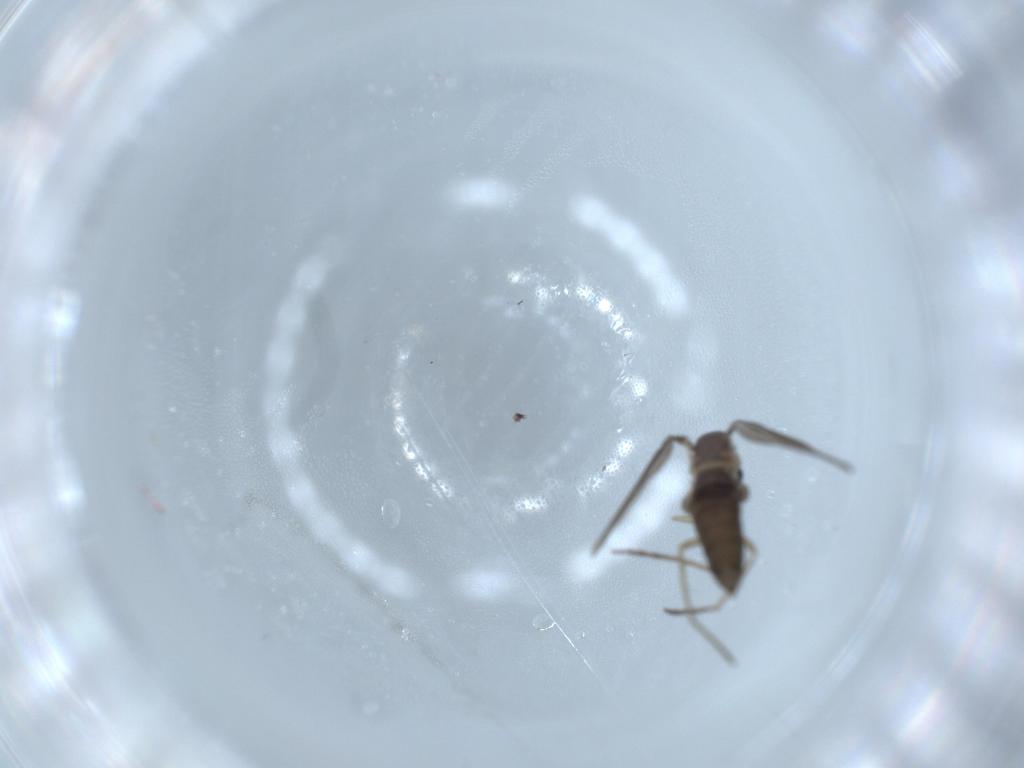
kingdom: Animalia
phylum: Arthropoda
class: Insecta
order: Diptera
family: Sciaridae
